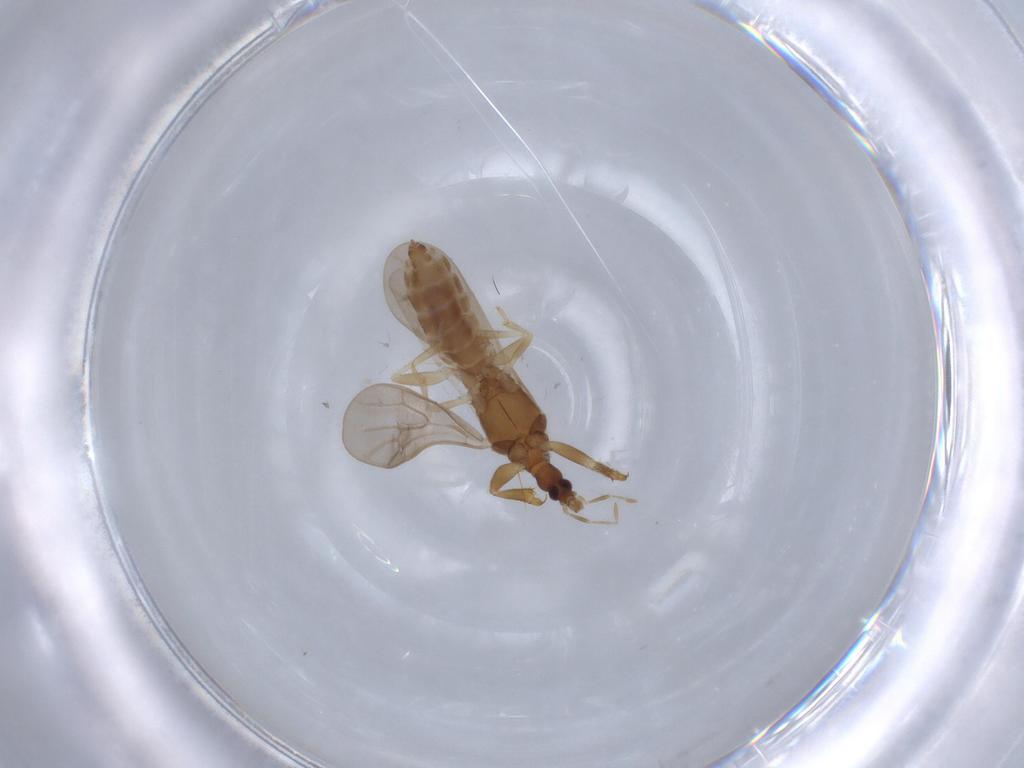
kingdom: Animalia
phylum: Arthropoda
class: Insecta
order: Hemiptera
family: Enicocephalidae
